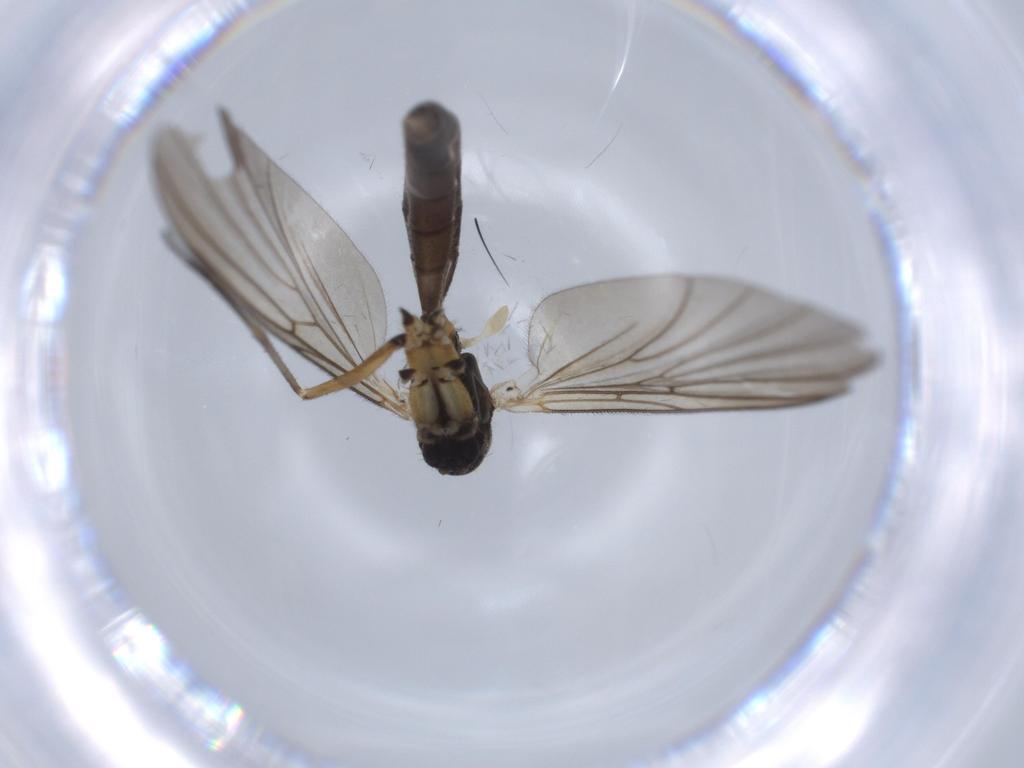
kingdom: Animalia
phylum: Arthropoda
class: Insecta
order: Diptera
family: Mycetophilidae
